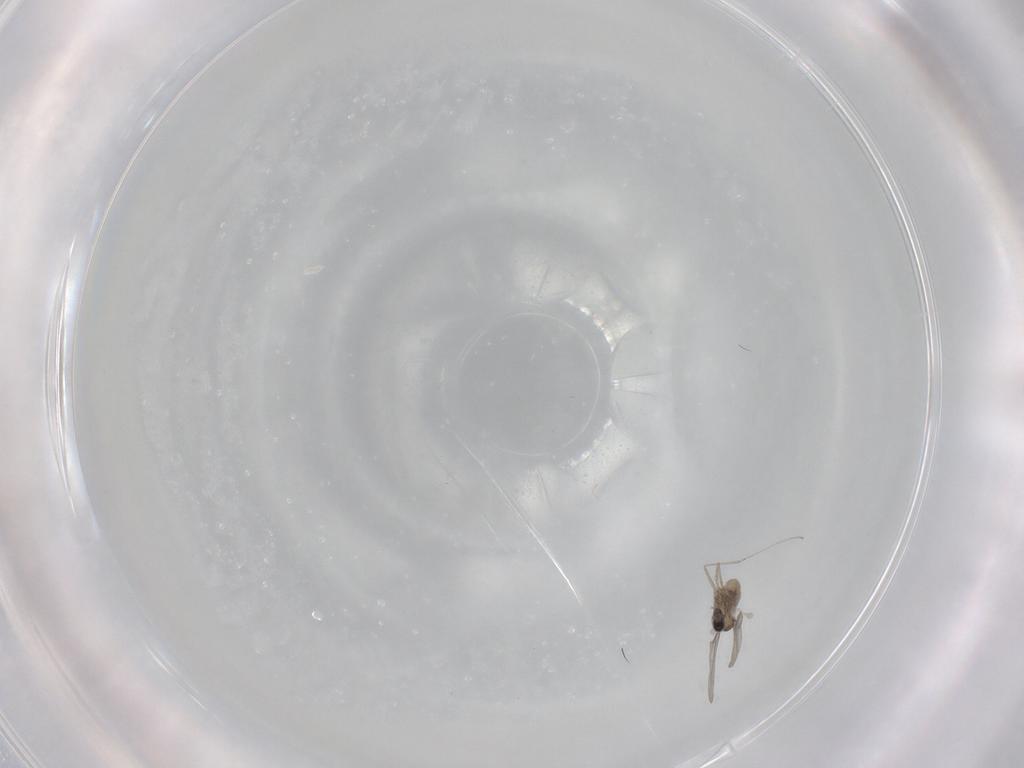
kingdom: Animalia
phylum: Arthropoda
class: Insecta
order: Diptera
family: Cecidomyiidae
